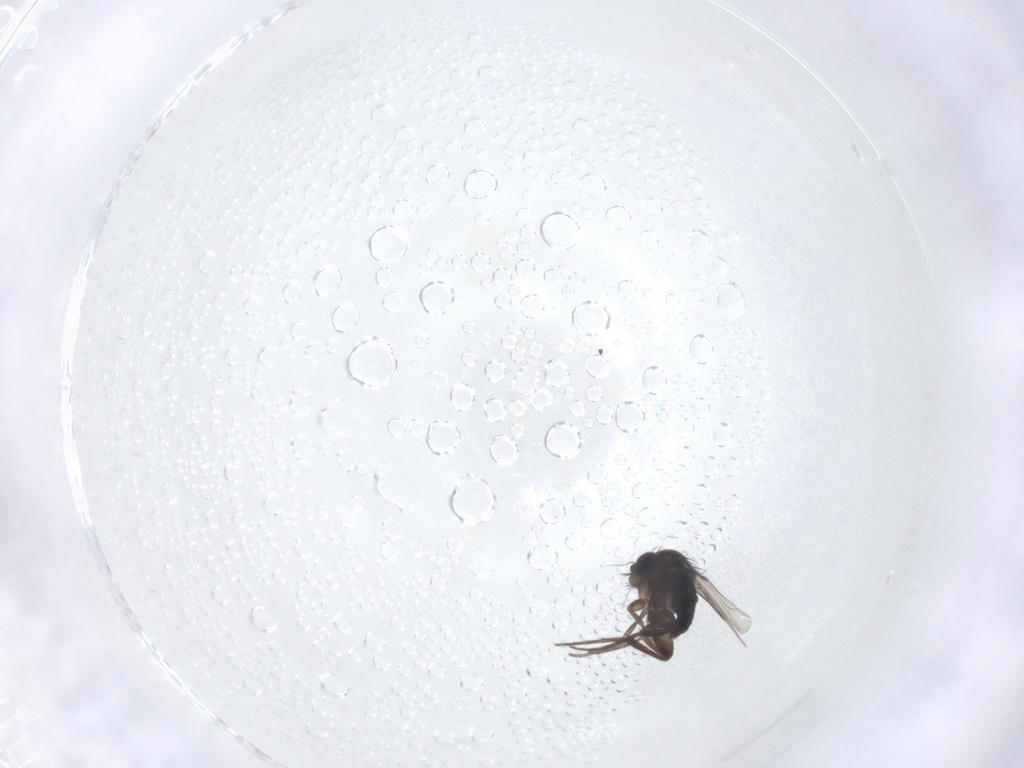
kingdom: Animalia
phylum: Arthropoda
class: Insecta
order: Diptera
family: Phoridae
